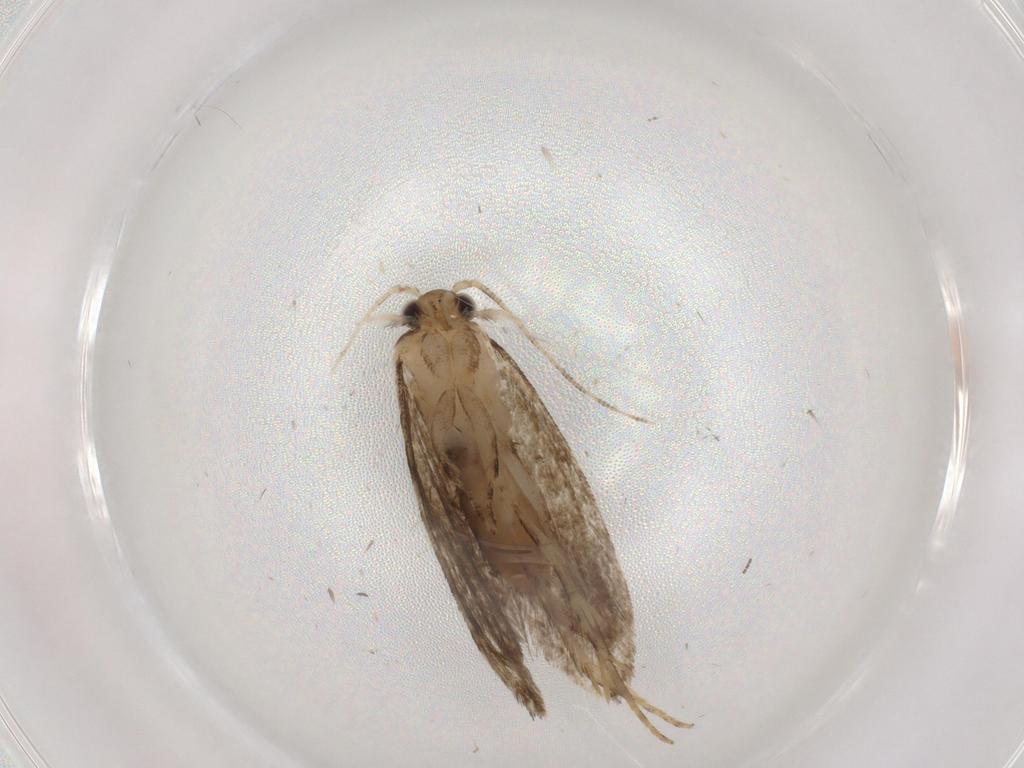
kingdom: Animalia
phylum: Arthropoda
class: Insecta
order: Lepidoptera
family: Tineidae
